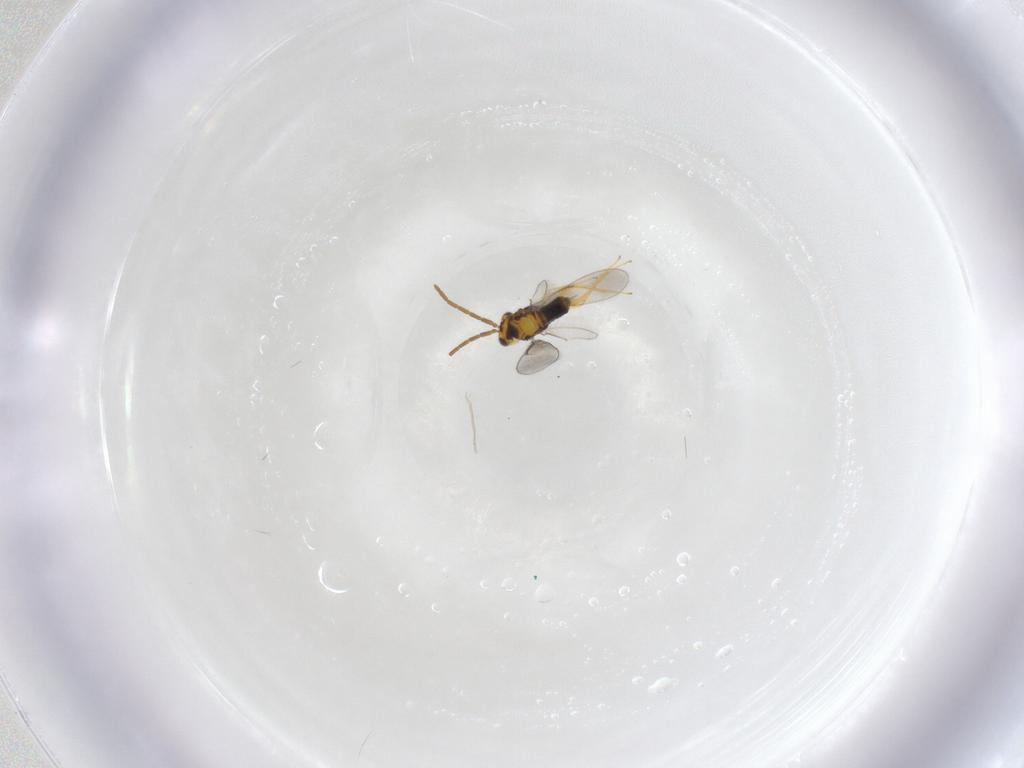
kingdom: Animalia
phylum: Arthropoda
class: Insecta
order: Hymenoptera
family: Aphelinidae
